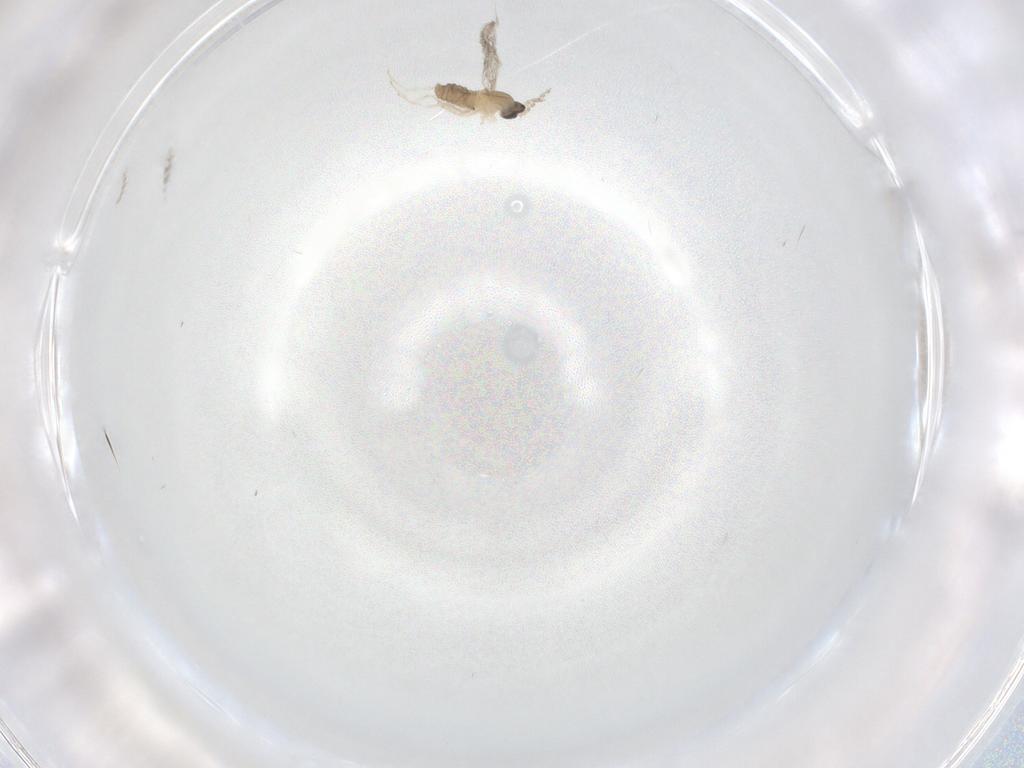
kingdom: Animalia
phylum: Arthropoda
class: Insecta
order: Diptera
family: Cecidomyiidae
